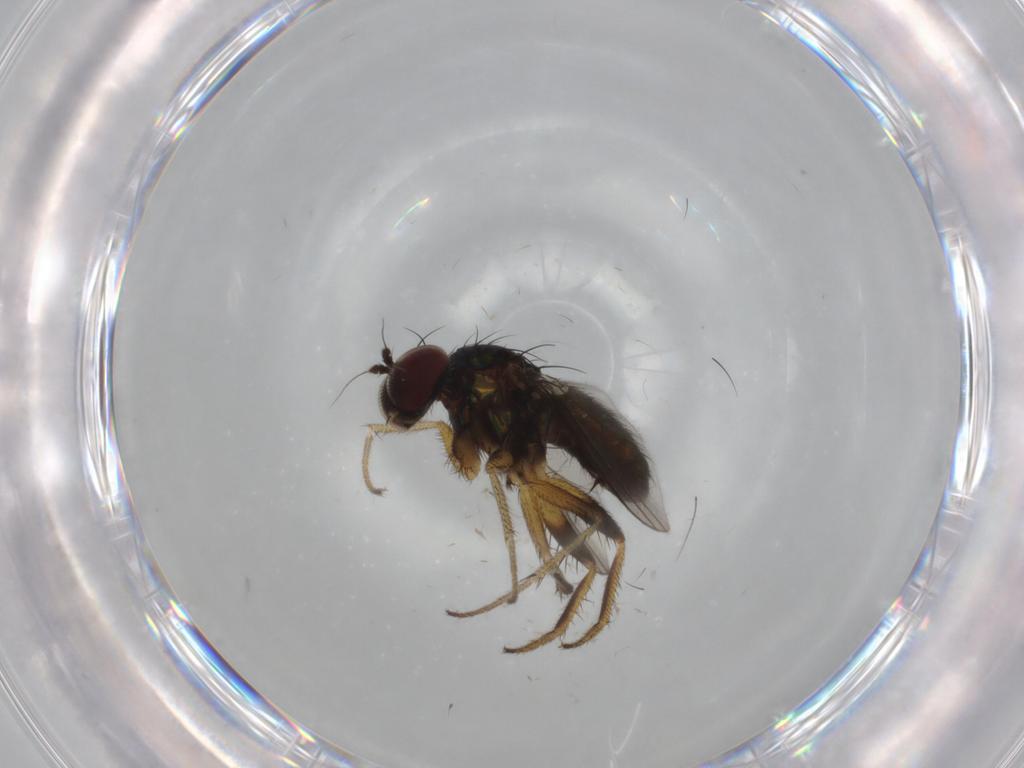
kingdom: Animalia
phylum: Arthropoda
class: Insecta
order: Diptera
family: Dolichopodidae
